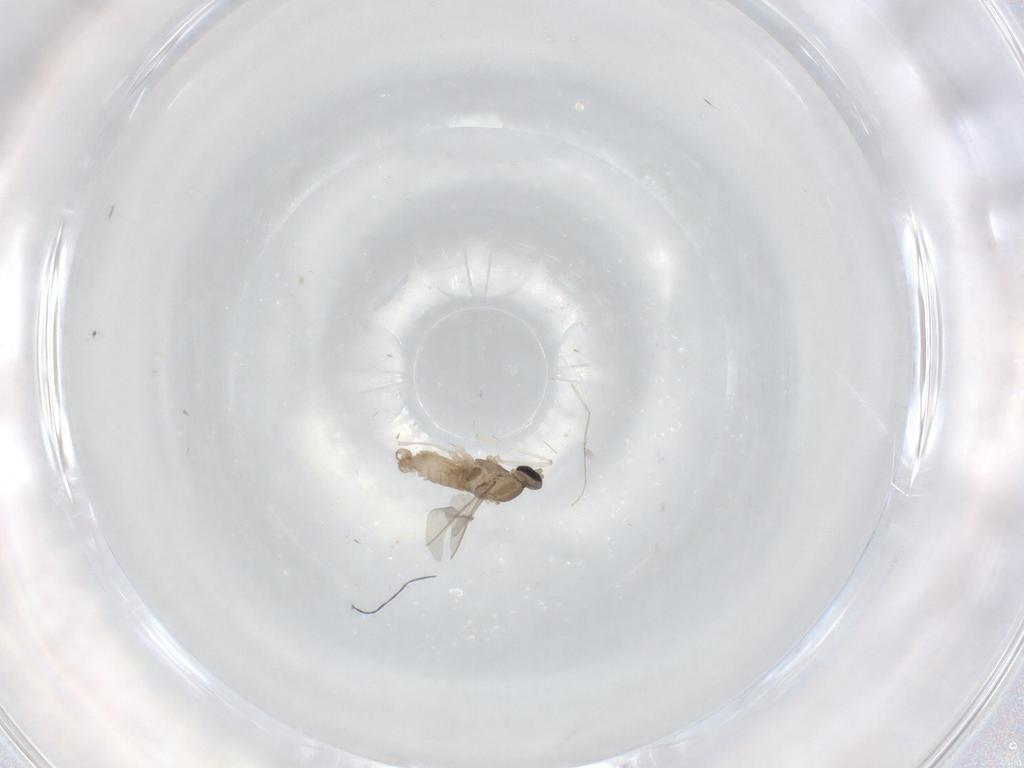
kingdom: Animalia
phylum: Arthropoda
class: Insecta
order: Diptera
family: Cecidomyiidae
